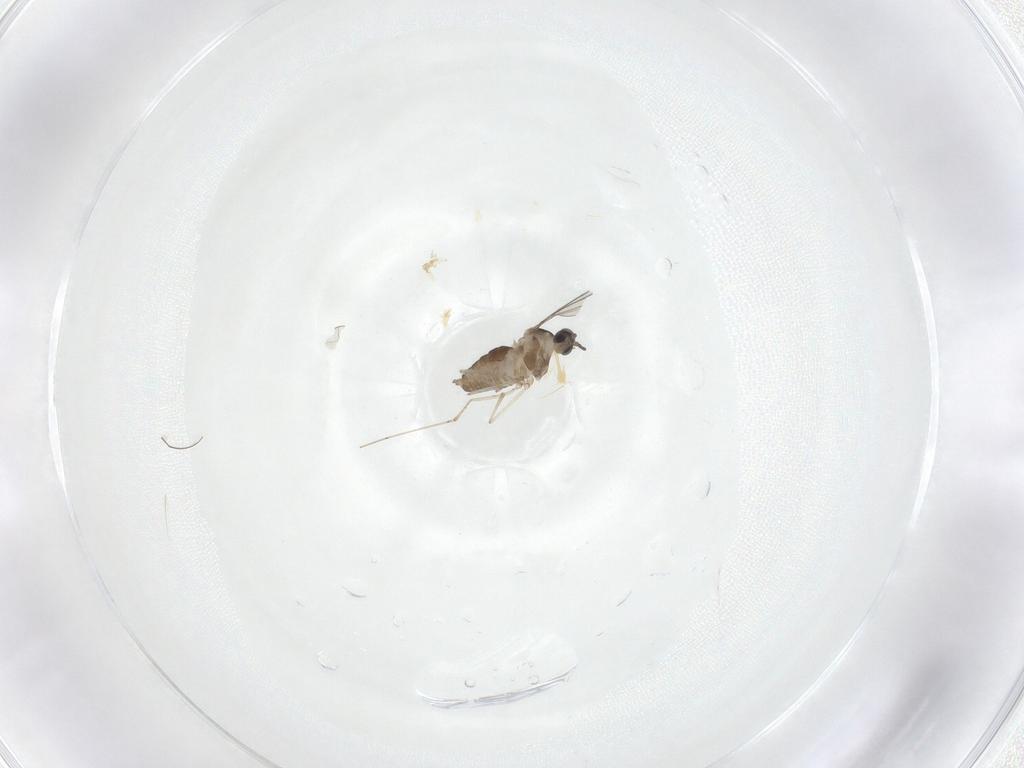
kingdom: Animalia
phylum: Arthropoda
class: Insecta
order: Diptera
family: Cecidomyiidae
